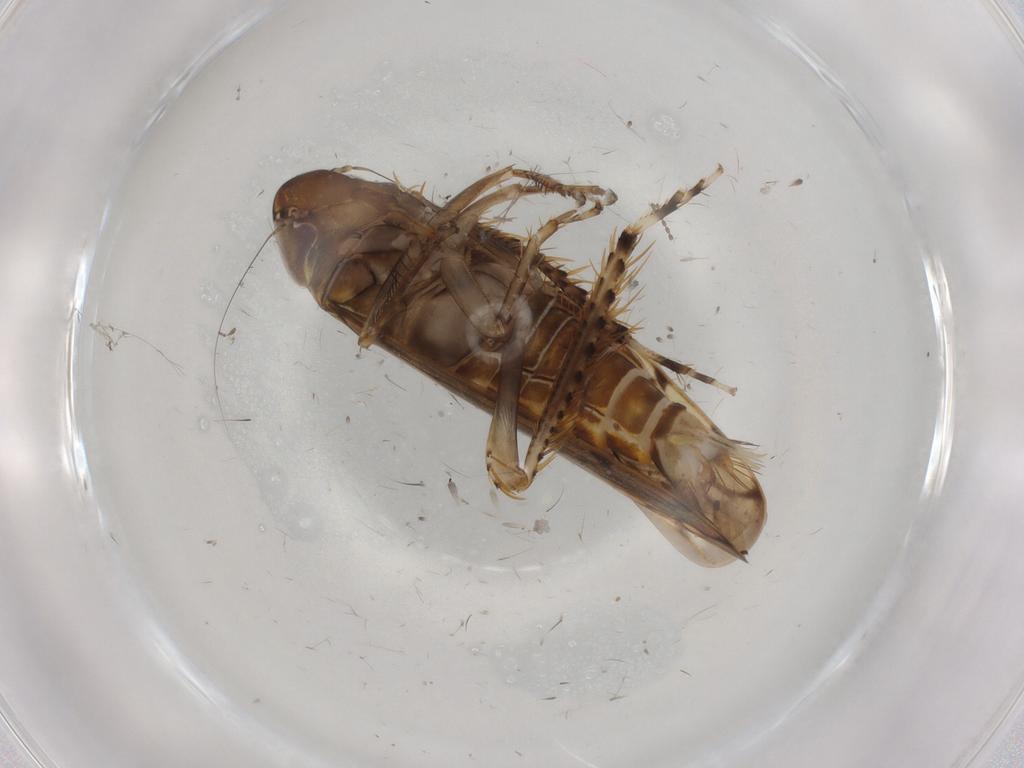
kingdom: Animalia
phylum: Arthropoda
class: Insecta
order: Hemiptera
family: Cicadellidae
